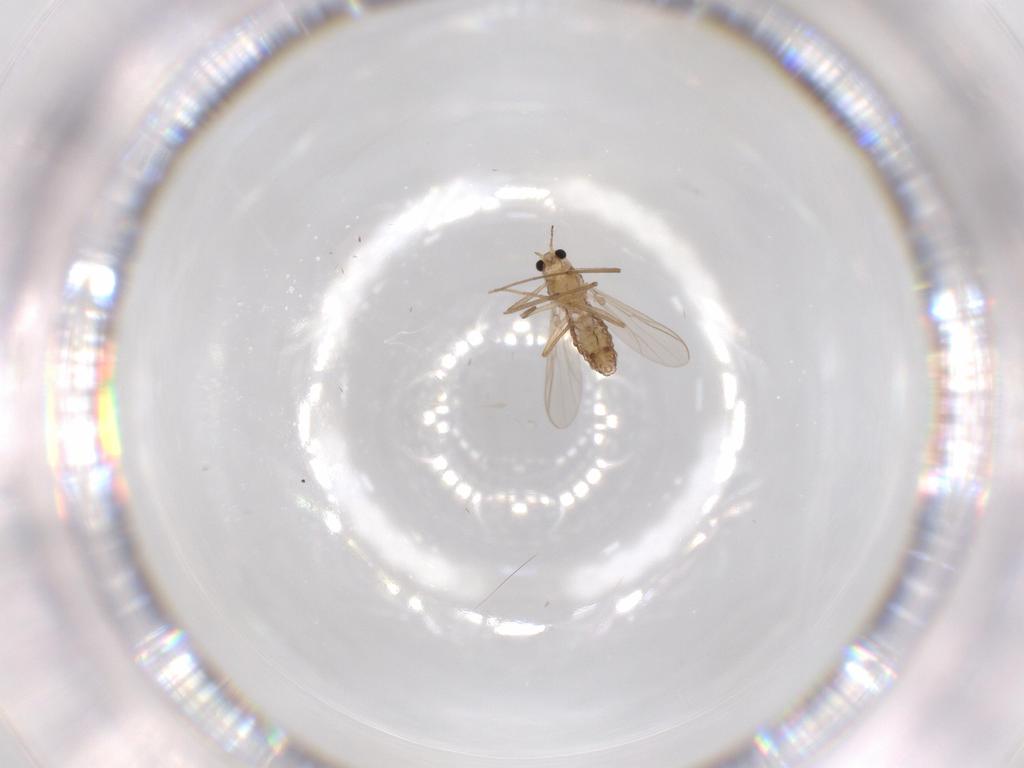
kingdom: Animalia
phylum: Arthropoda
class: Insecta
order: Diptera
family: Chironomidae
